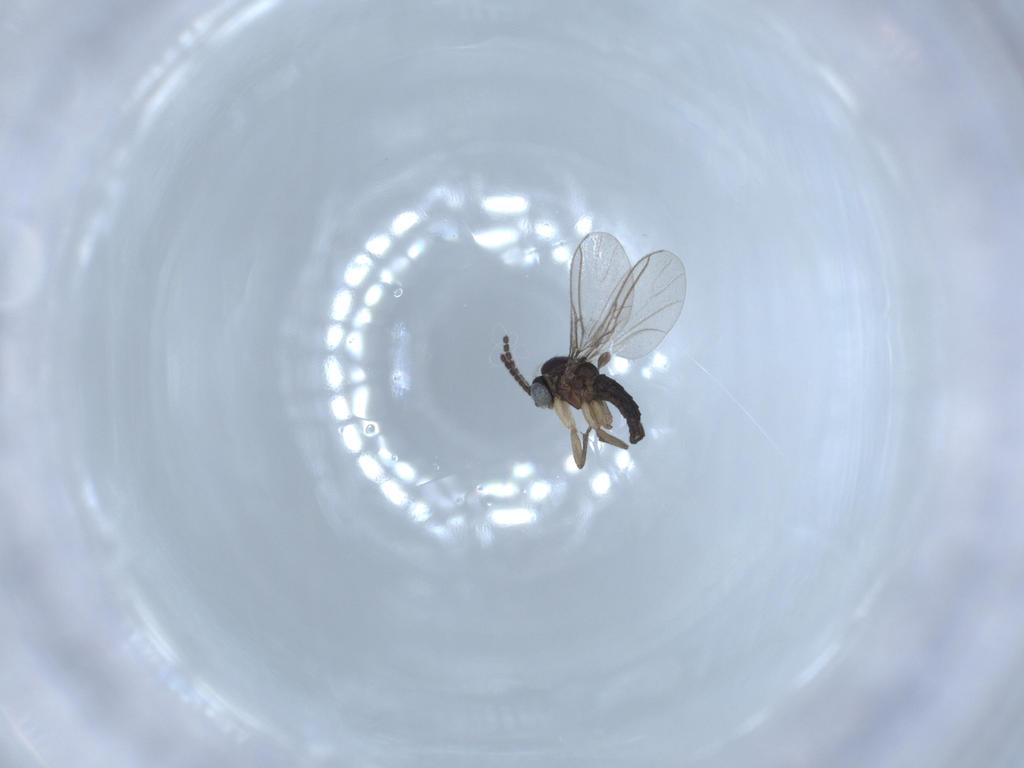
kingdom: Animalia
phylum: Arthropoda
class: Insecta
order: Diptera
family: Sciaridae
